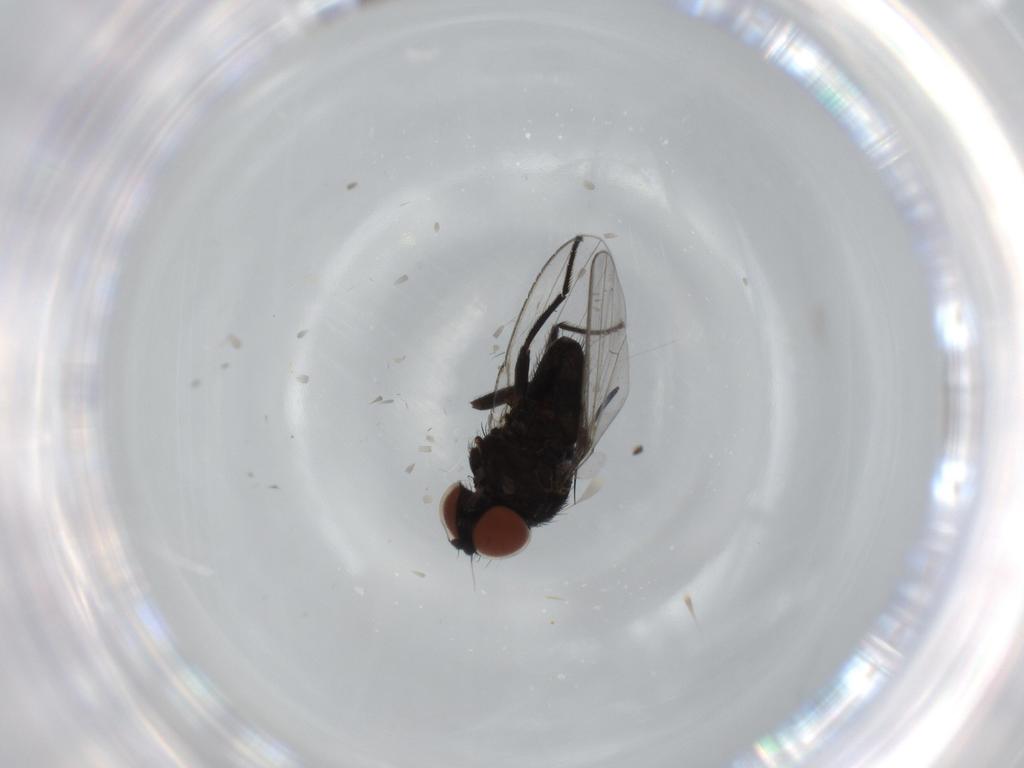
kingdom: Animalia
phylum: Arthropoda
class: Insecta
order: Diptera
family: Milichiidae
